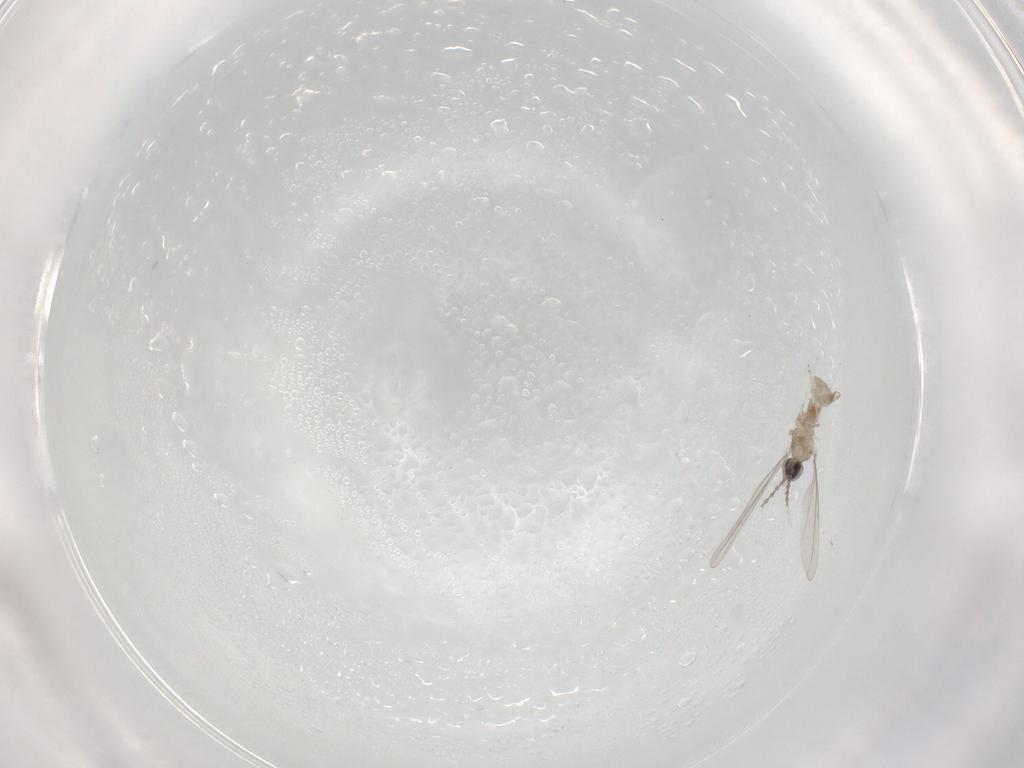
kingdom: Animalia
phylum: Arthropoda
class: Insecta
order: Diptera
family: Cecidomyiidae
